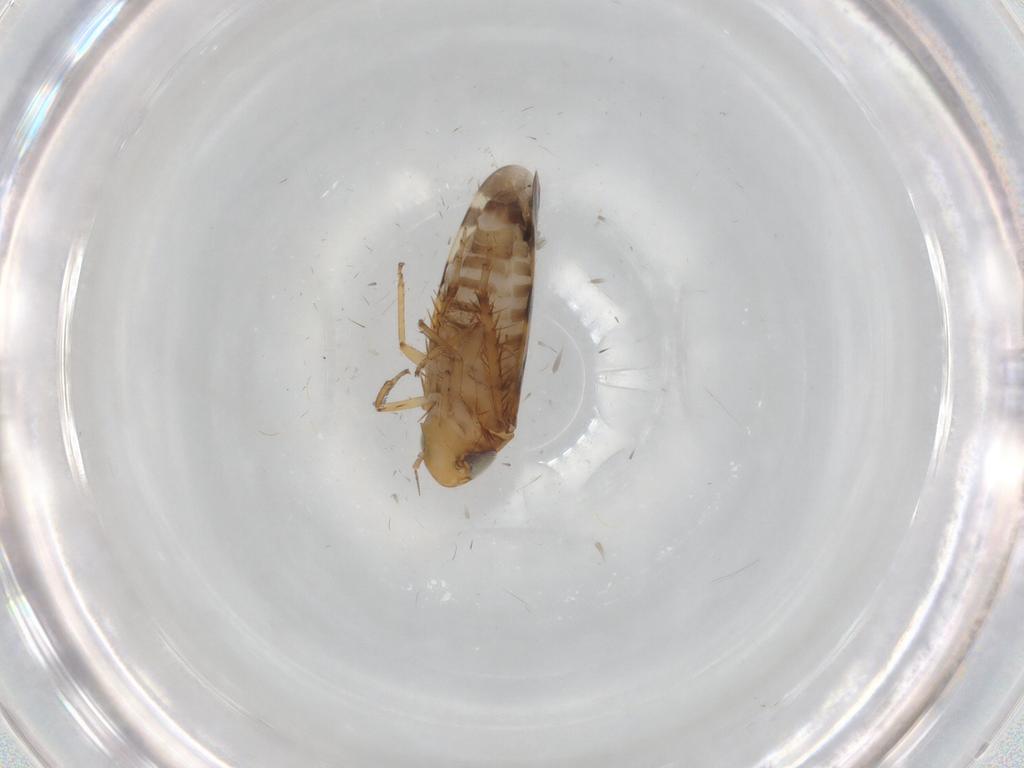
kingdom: Animalia
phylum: Arthropoda
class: Insecta
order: Hemiptera
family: Cicadellidae
